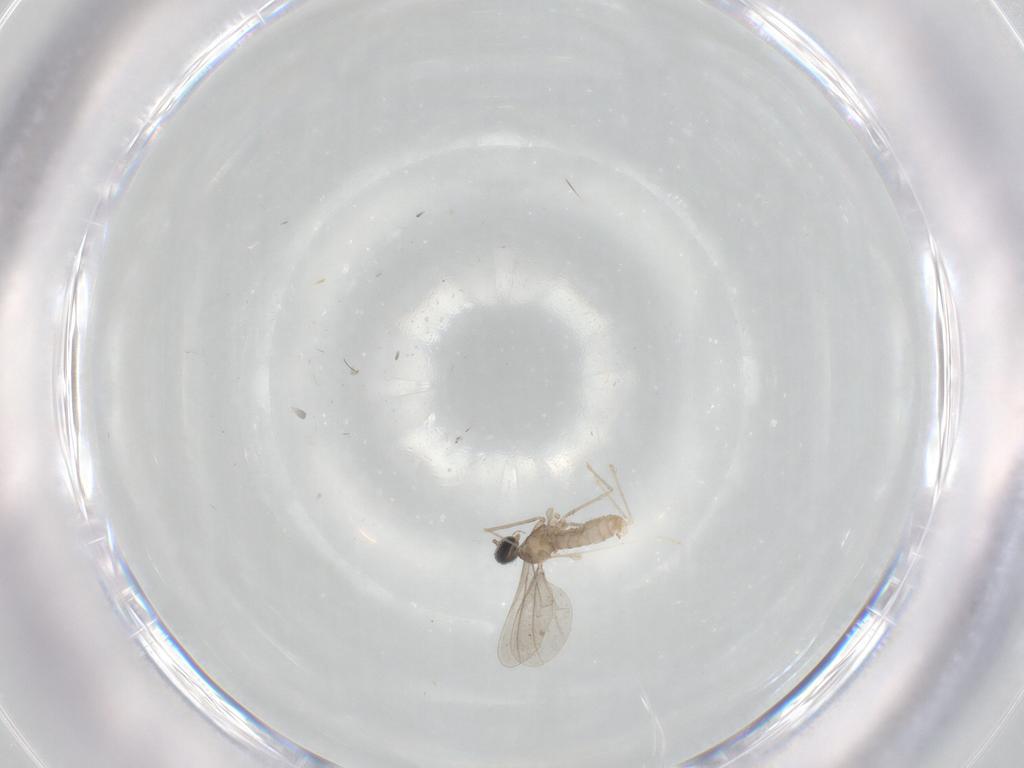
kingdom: Animalia
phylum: Arthropoda
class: Insecta
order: Diptera
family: Cecidomyiidae
